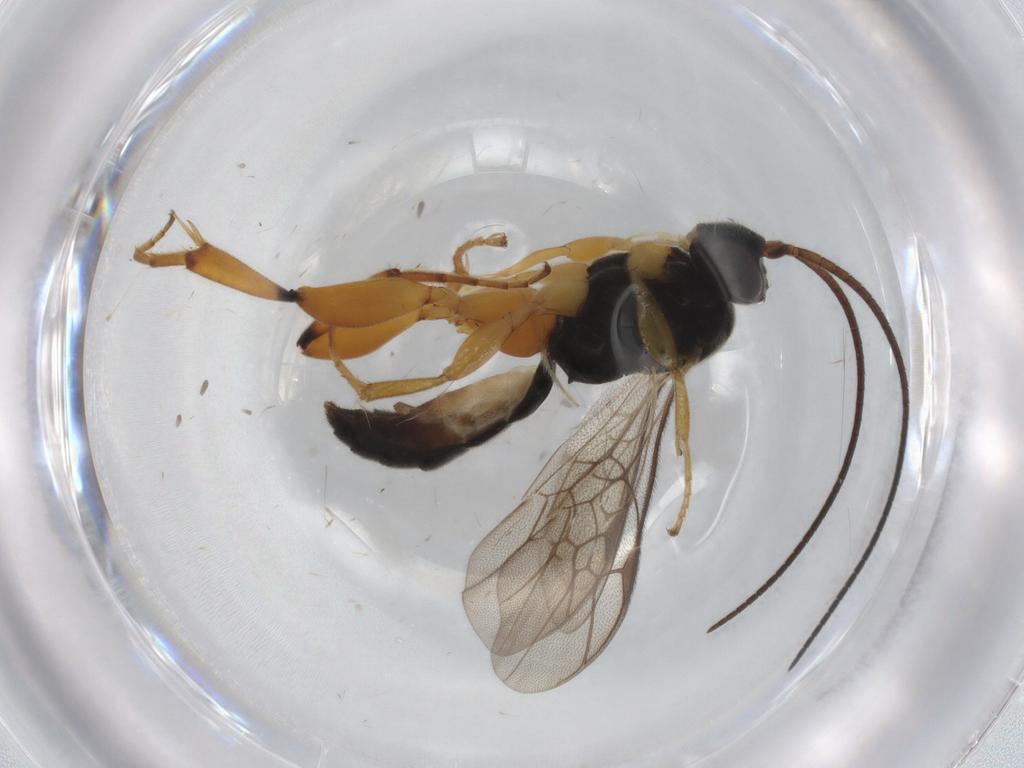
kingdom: Animalia
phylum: Arthropoda
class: Insecta
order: Hymenoptera
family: Ichneumonidae
